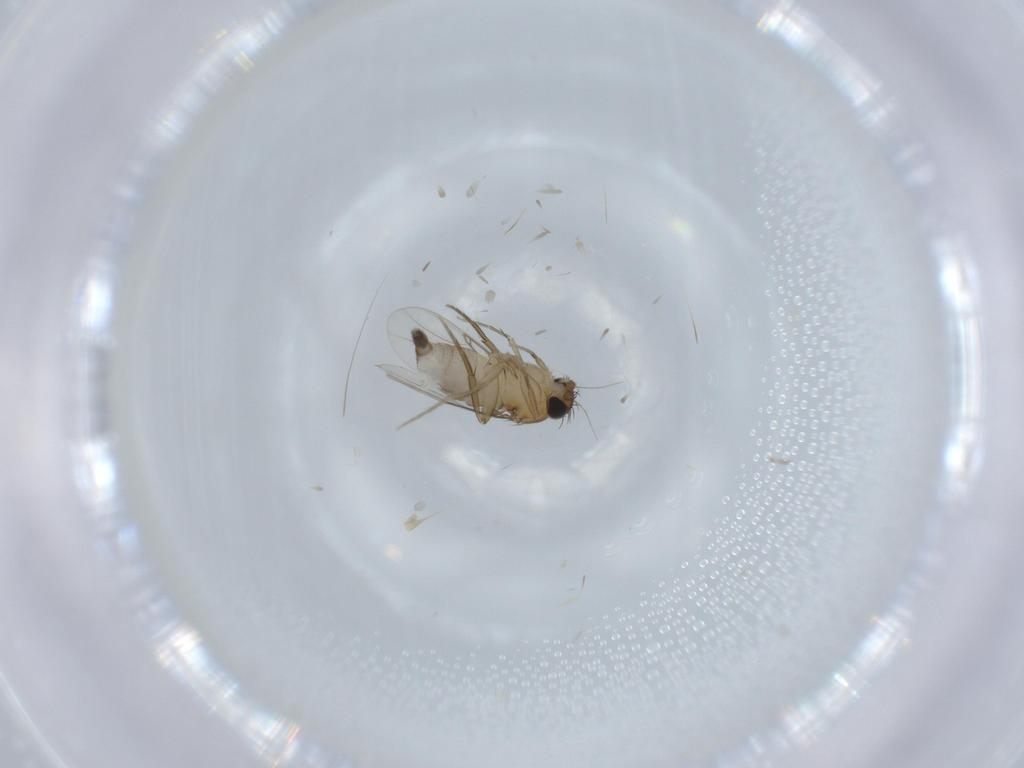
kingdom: Animalia
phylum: Arthropoda
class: Insecta
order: Diptera
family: Phoridae
